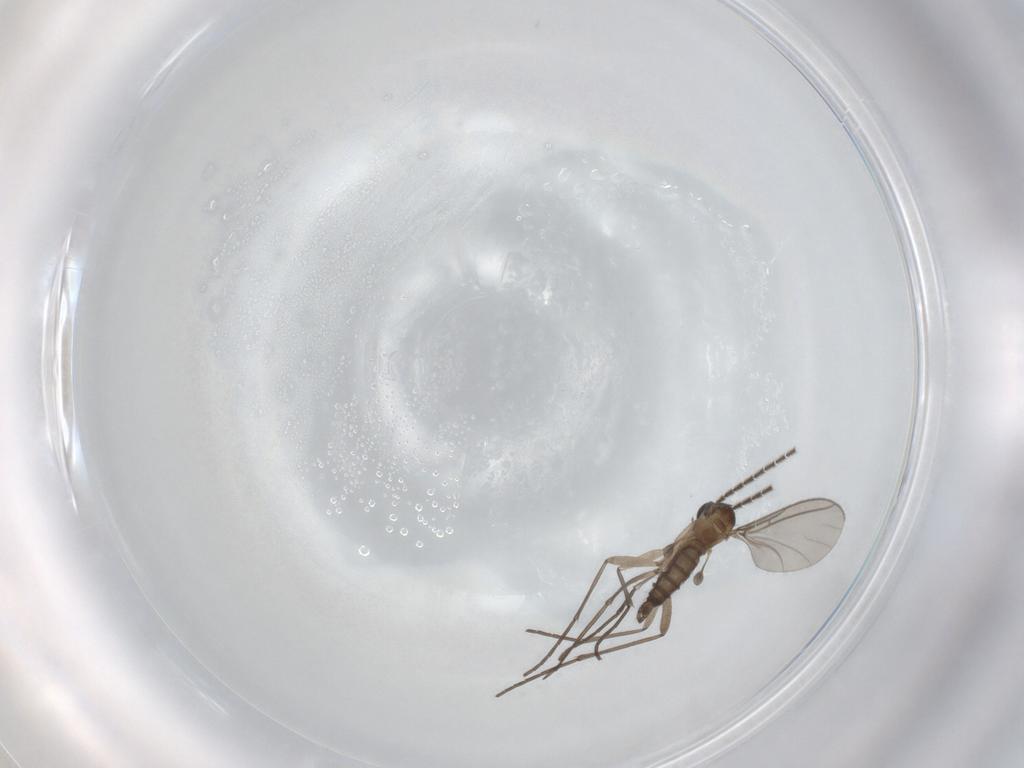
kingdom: Animalia
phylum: Arthropoda
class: Insecta
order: Diptera
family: Sciaridae
